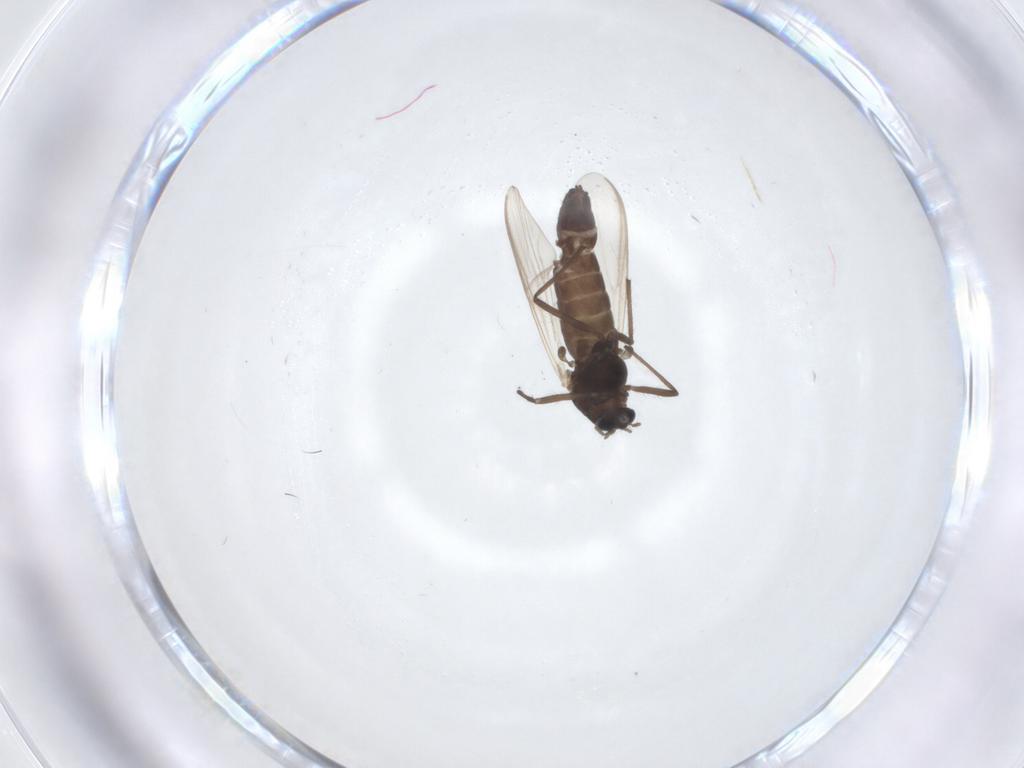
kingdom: Animalia
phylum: Arthropoda
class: Insecta
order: Diptera
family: Chironomidae
